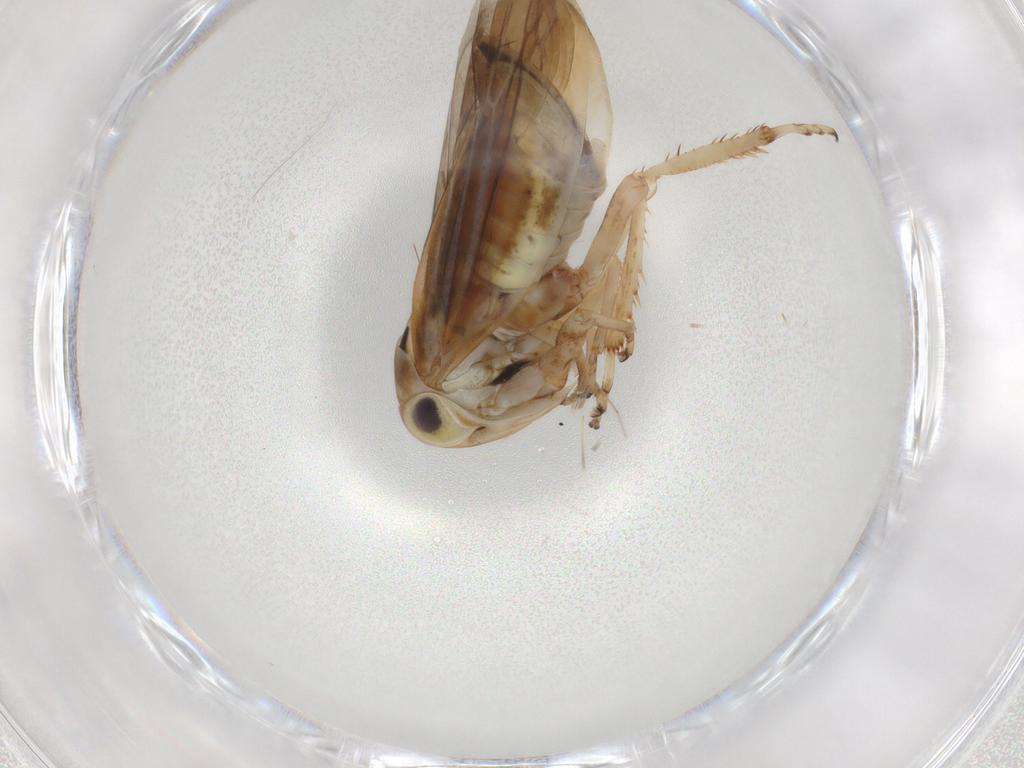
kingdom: Animalia
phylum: Arthropoda
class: Insecta
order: Hemiptera
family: Cicadellidae
